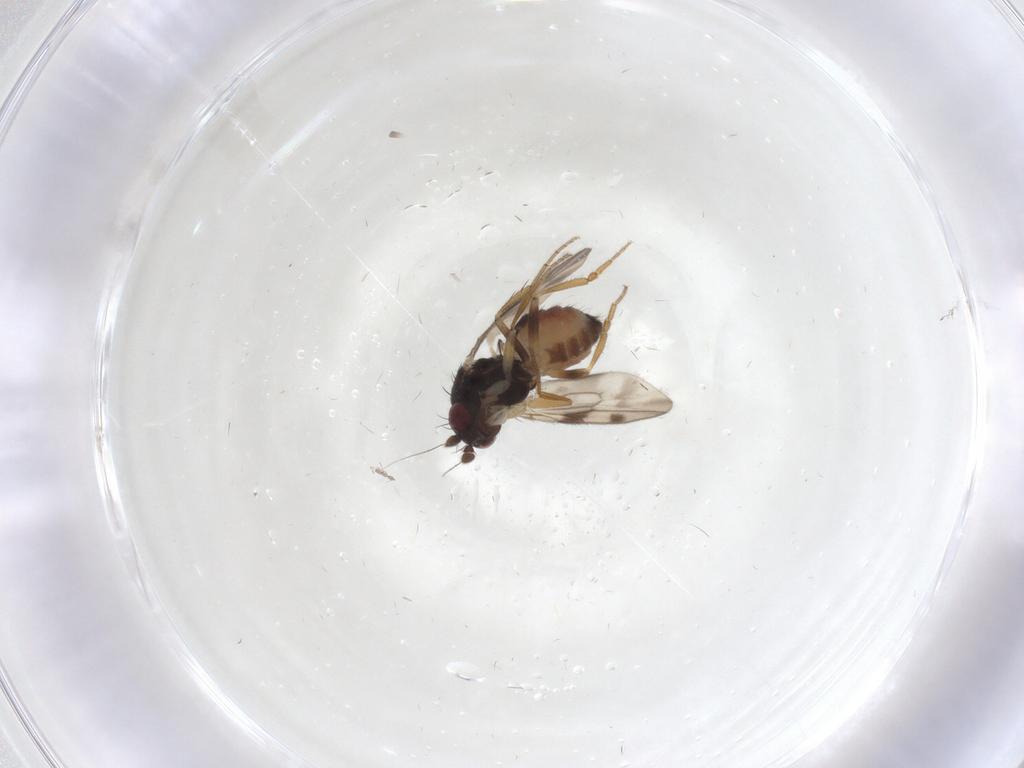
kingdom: Animalia
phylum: Arthropoda
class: Insecta
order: Diptera
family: Sphaeroceridae
